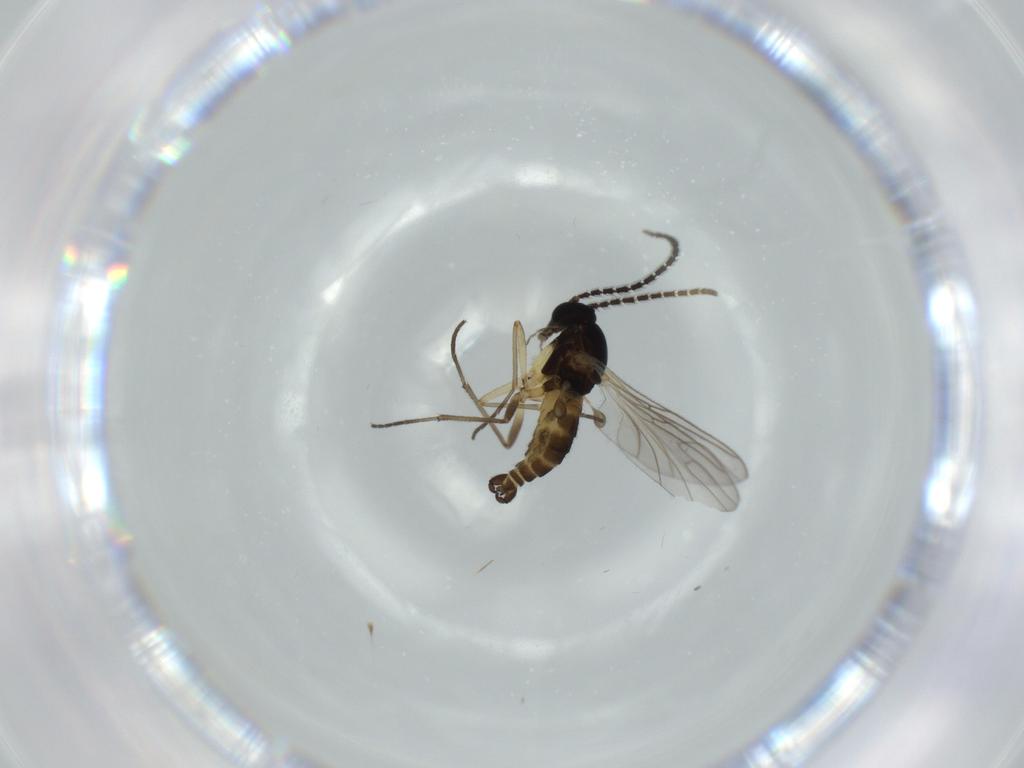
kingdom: Animalia
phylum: Arthropoda
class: Insecta
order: Diptera
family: Sciaridae
